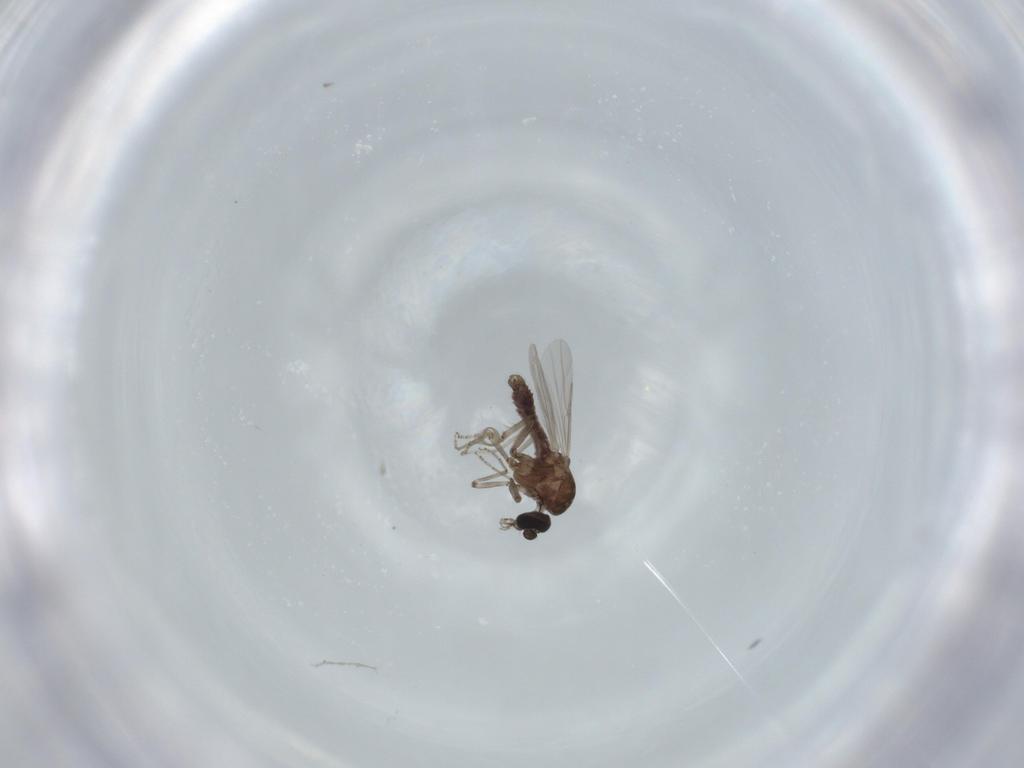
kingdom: Animalia
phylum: Arthropoda
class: Insecta
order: Diptera
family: Ceratopogonidae
